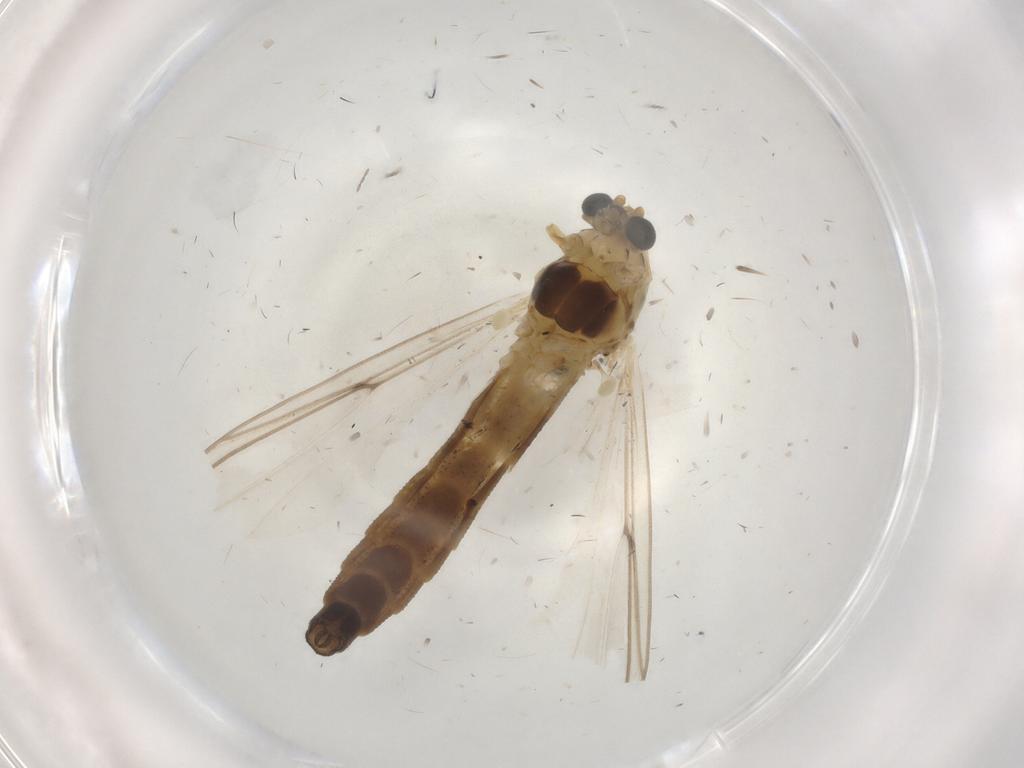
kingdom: Animalia
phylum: Arthropoda
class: Insecta
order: Diptera
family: Chironomidae
